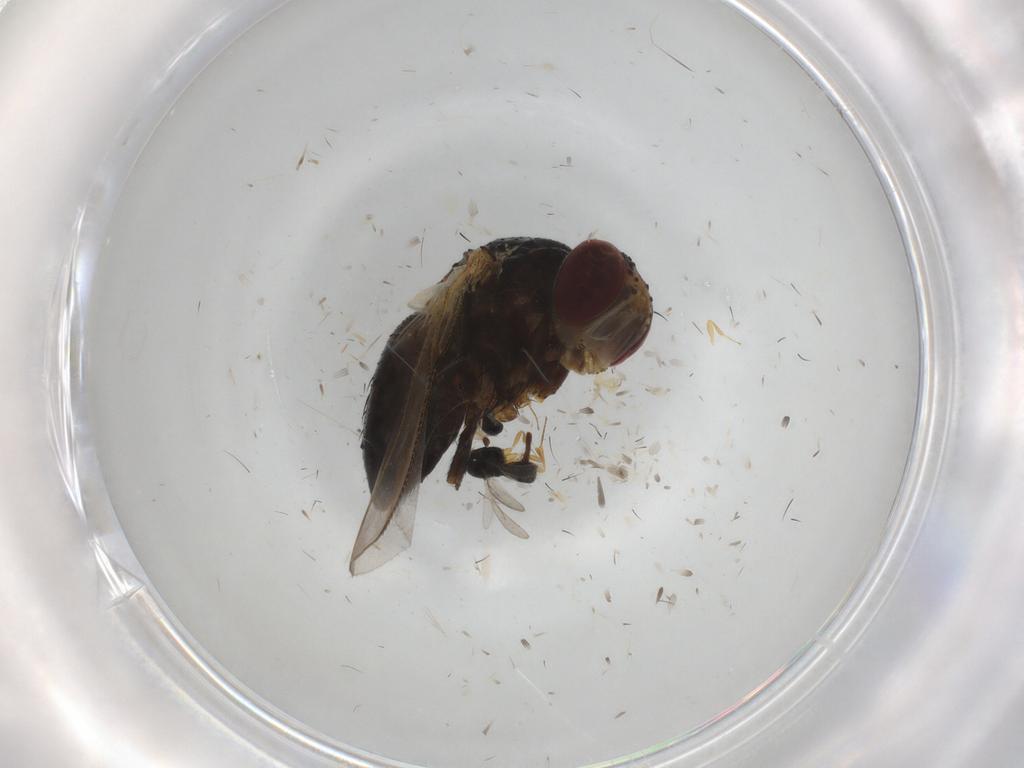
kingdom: Animalia
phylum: Arthropoda
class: Insecta
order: Diptera
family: Tachinidae
